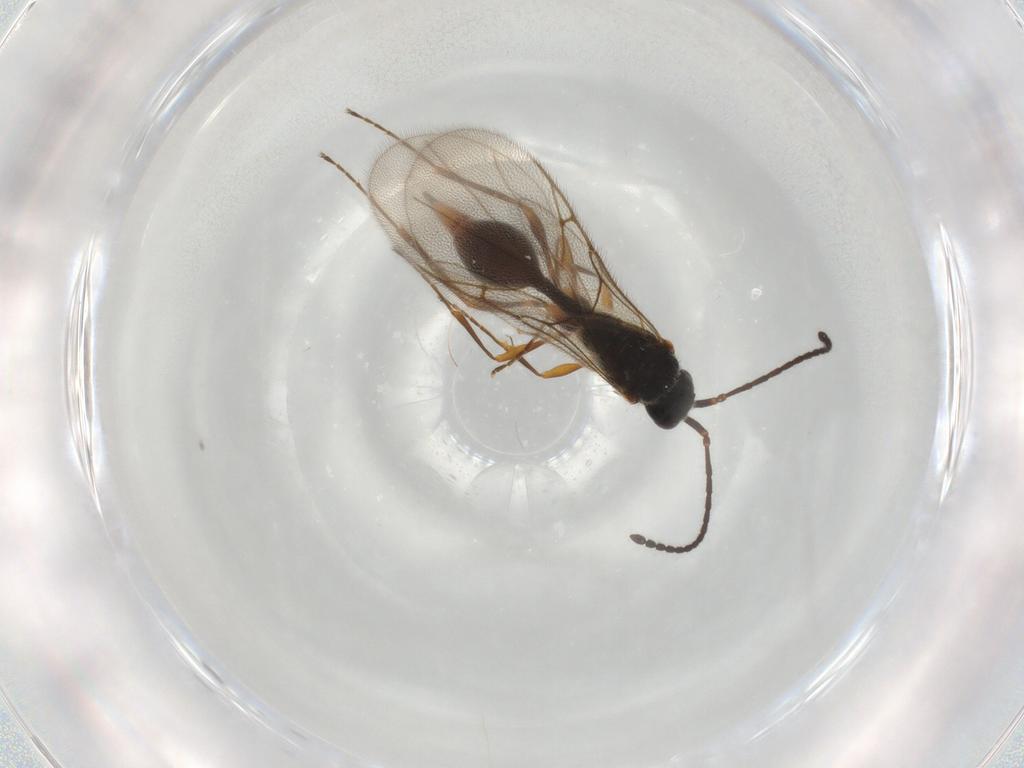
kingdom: Animalia
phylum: Arthropoda
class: Insecta
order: Hymenoptera
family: Diapriidae
